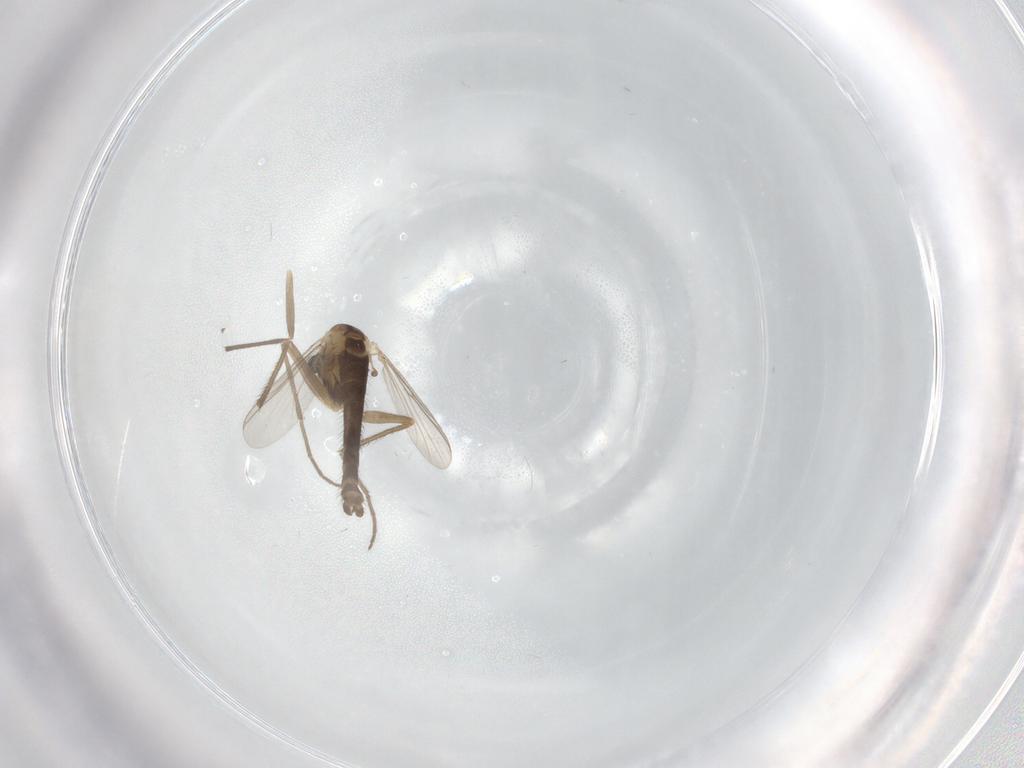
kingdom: Animalia
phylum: Arthropoda
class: Insecta
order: Diptera
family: Chironomidae
